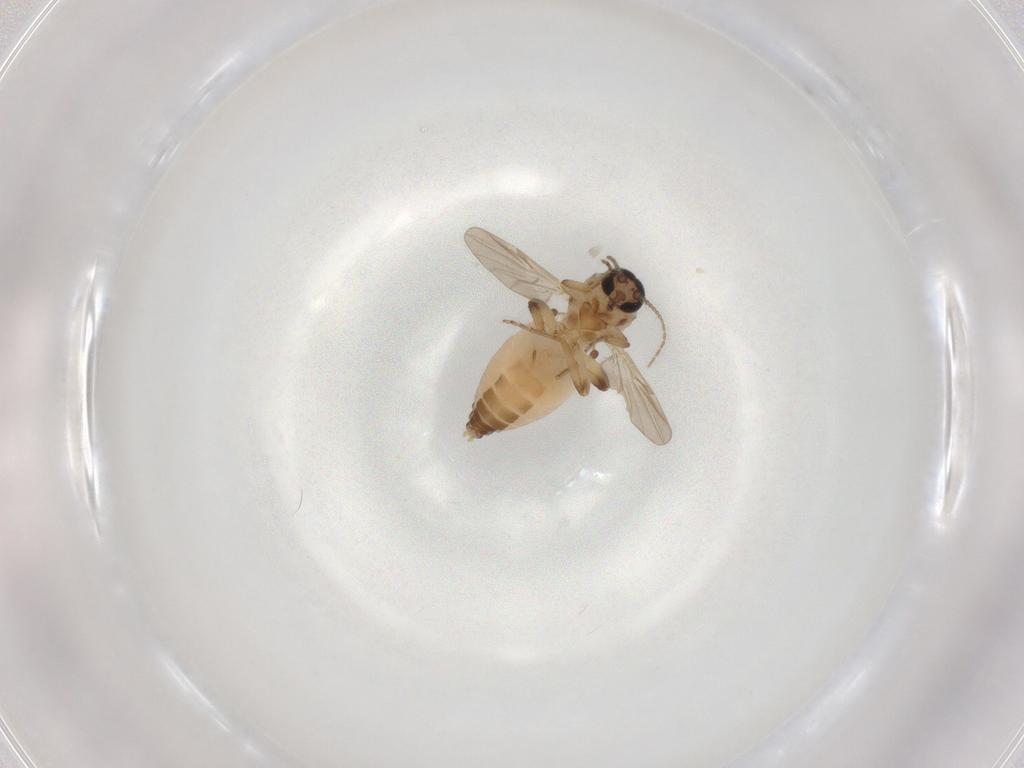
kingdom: Animalia
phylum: Arthropoda
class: Insecta
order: Diptera
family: Ceratopogonidae
